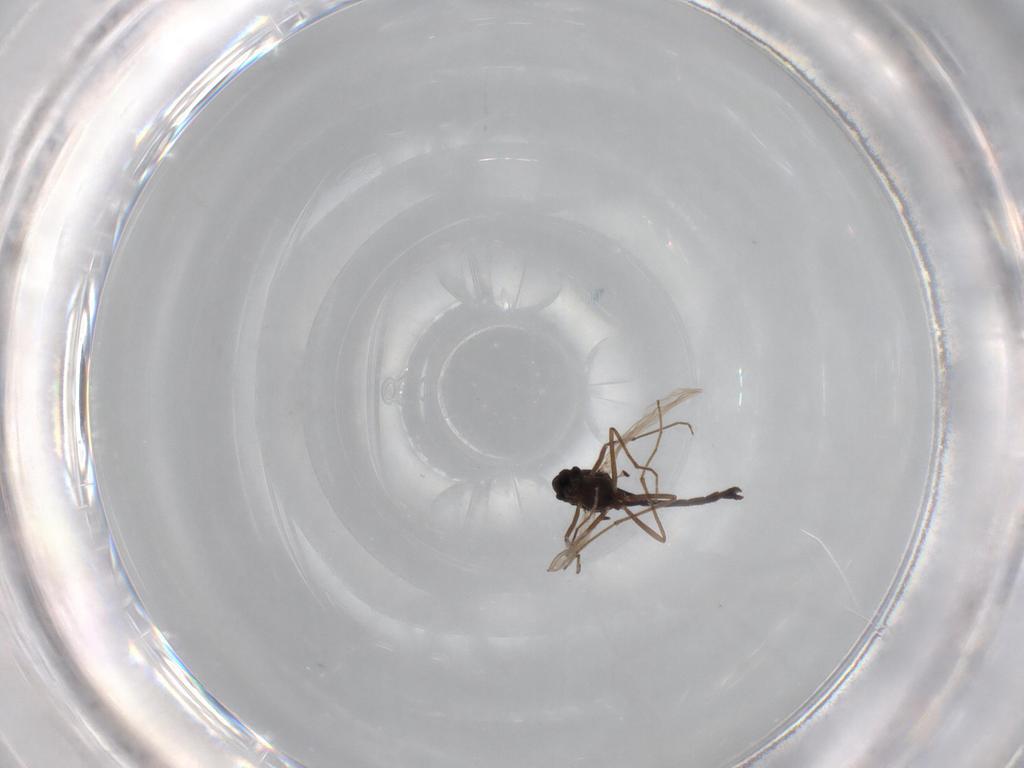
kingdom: Animalia
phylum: Arthropoda
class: Insecta
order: Diptera
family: Chironomidae
